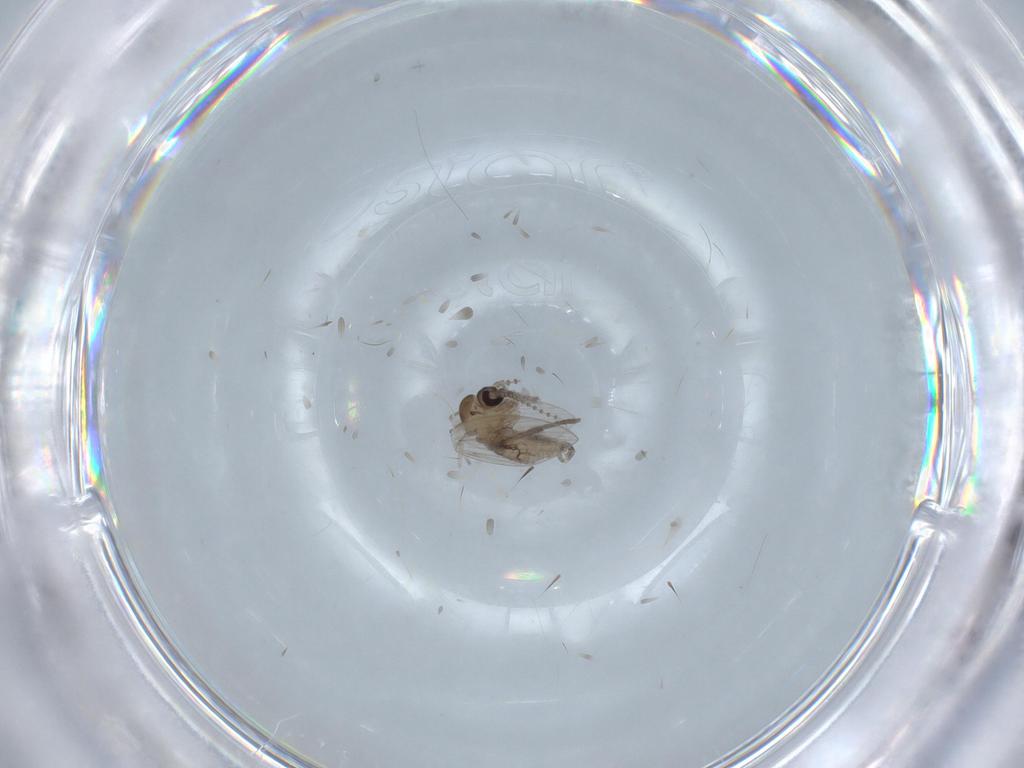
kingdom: Animalia
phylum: Arthropoda
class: Insecta
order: Diptera
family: Psychodidae
